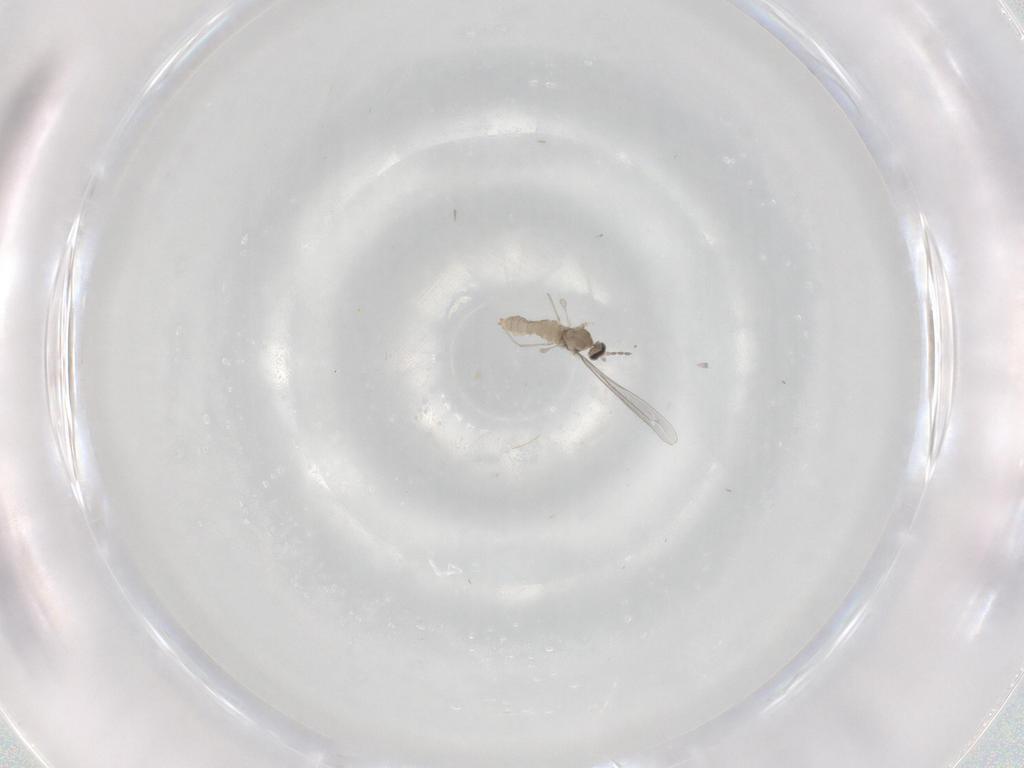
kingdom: Animalia
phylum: Arthropoda
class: Insecta
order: Diptera
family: Cecidomyiidae
